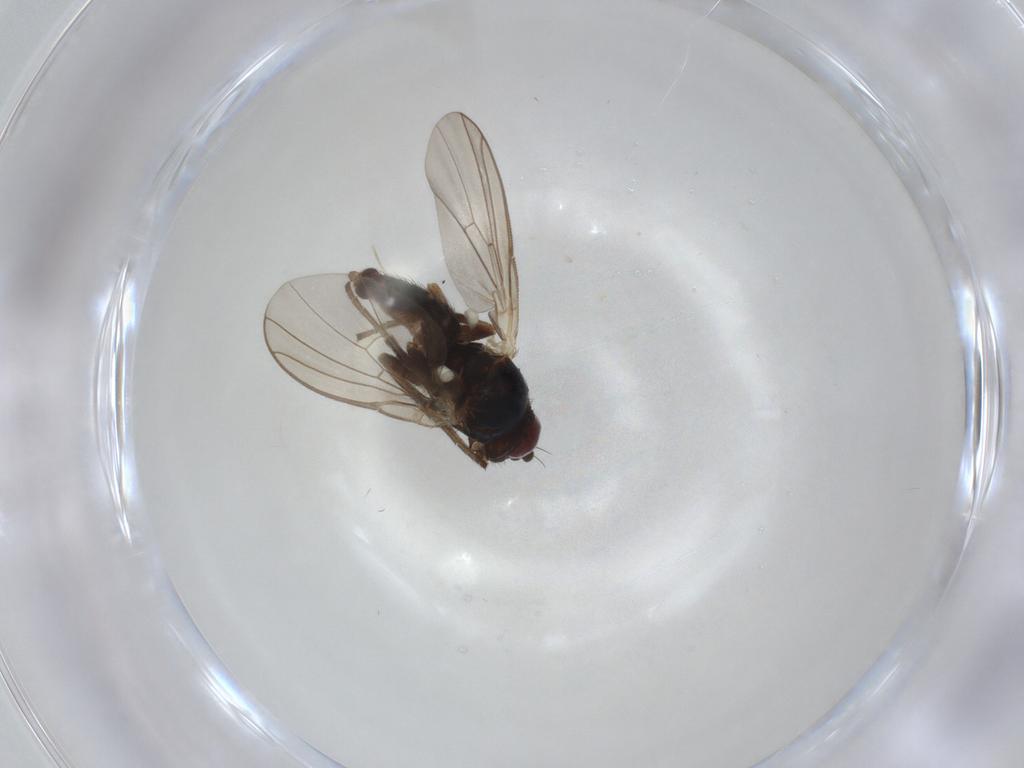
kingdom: Animalia
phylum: Arthropoda
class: Insecta
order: Diptera
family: Agromyzidae
